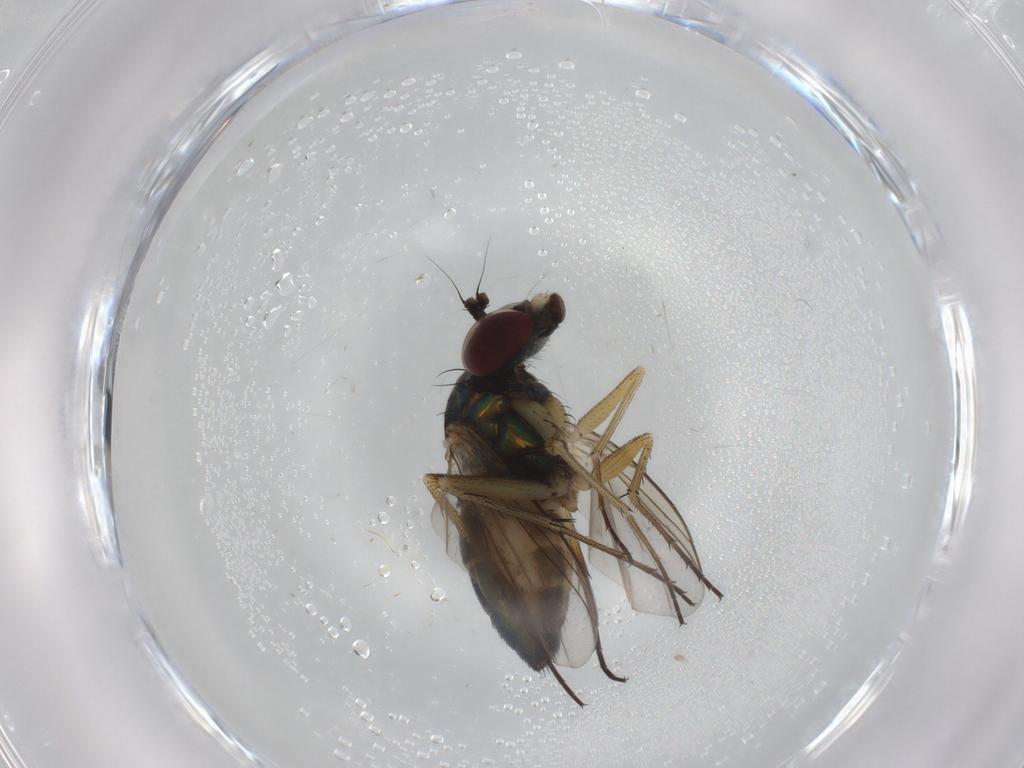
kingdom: Animalia
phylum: Arthropoda
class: Insecta
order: Diptera
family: Dolichopodidae
